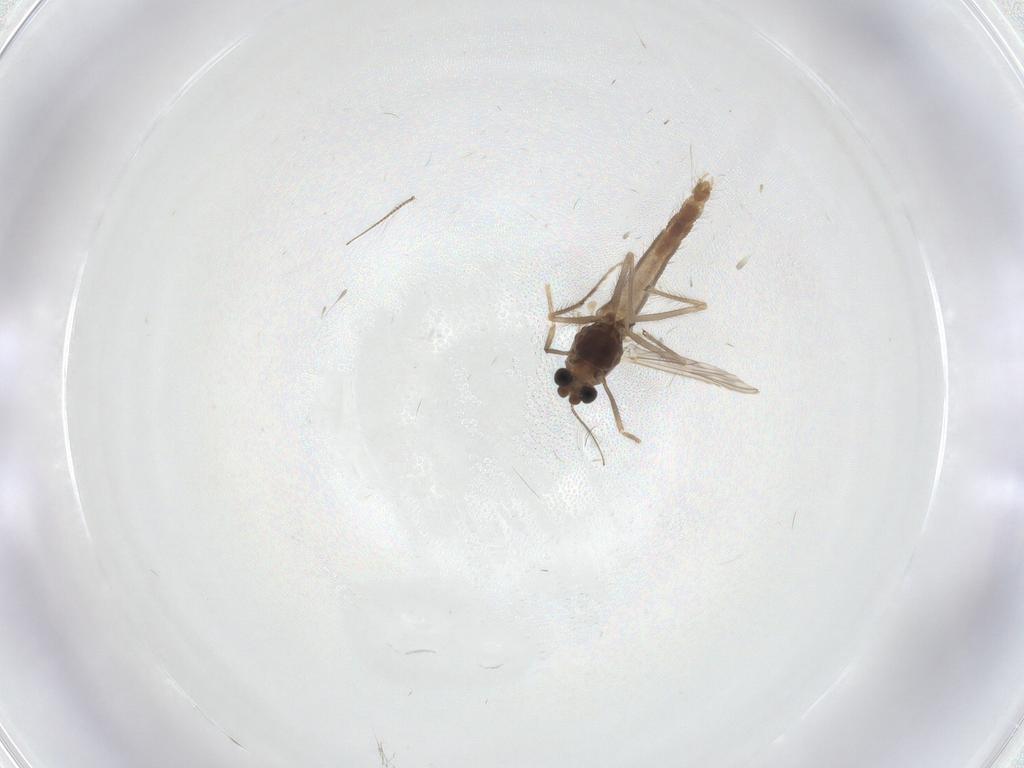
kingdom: Animalia
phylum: Arthropoda
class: Insecta
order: Diptera
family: Chironomidae
